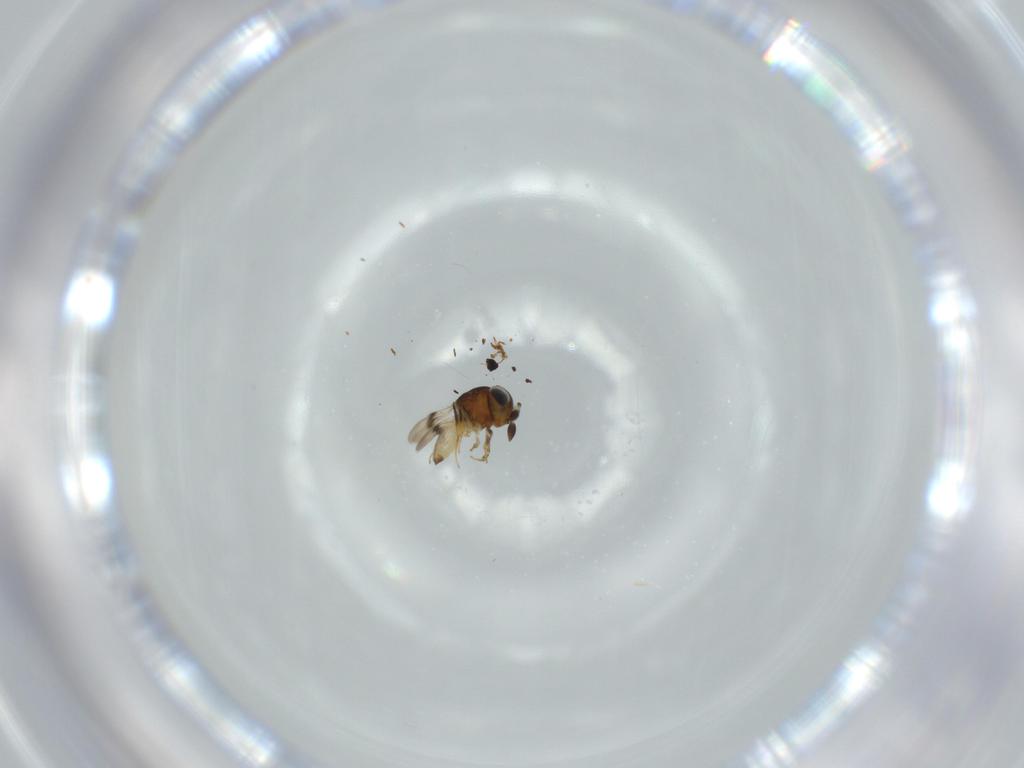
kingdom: Animalia
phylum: Arthropoda
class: Arachnida
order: Araneae
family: Pholcidae
